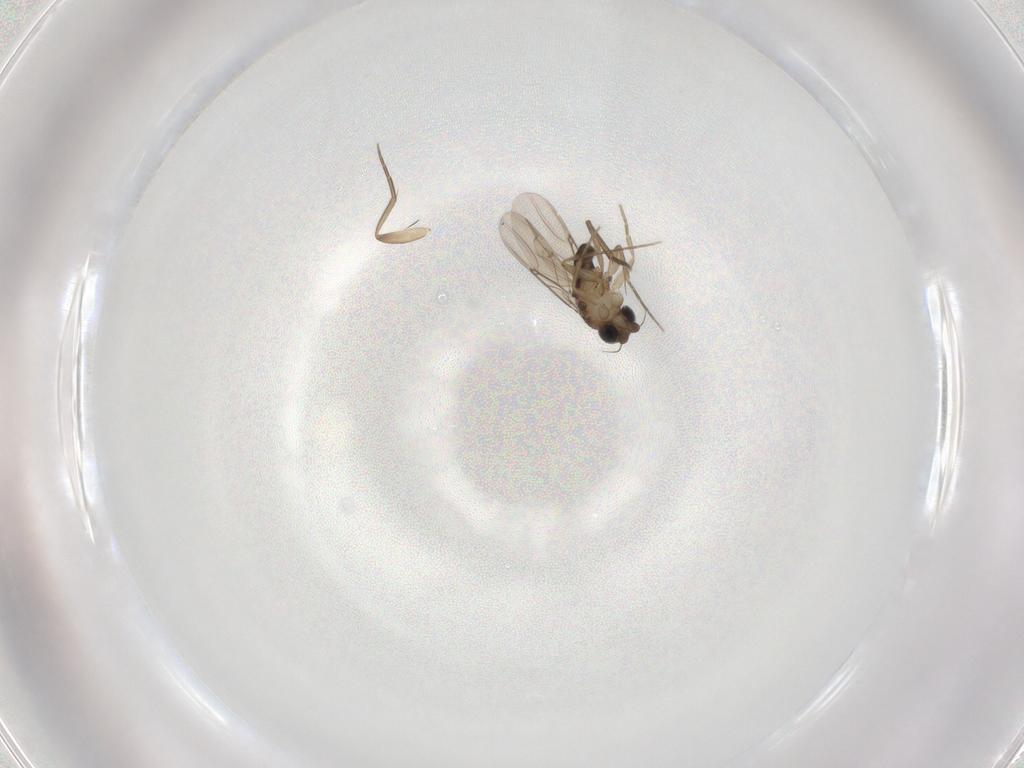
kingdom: Animalia
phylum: Arthropoda
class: Insecta
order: Diptera
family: Phoridae
